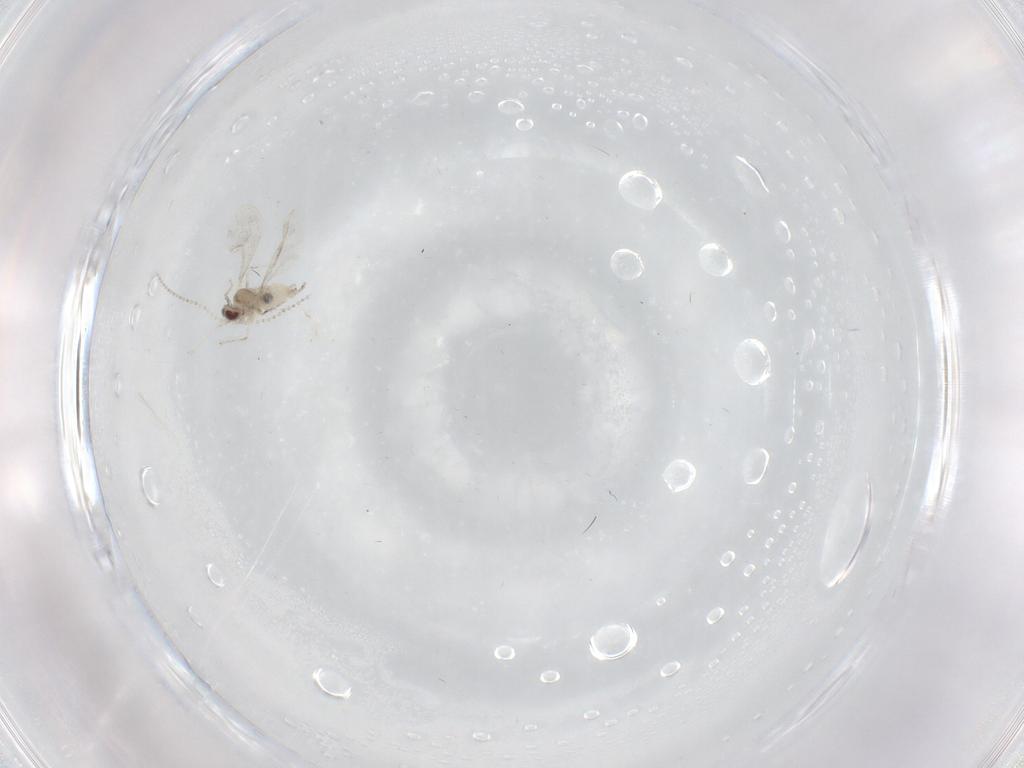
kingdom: Animalia
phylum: Arthropoda
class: Insecta
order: Diptera
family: Cecidomyiidae
